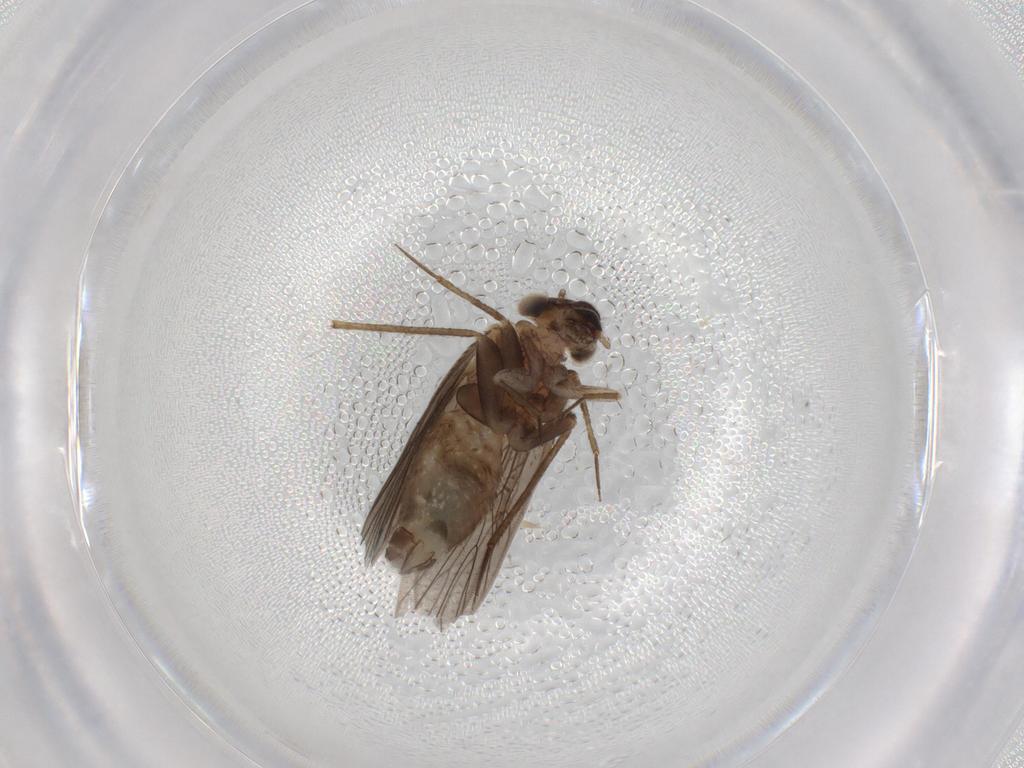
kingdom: Animalia
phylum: Arthropoda
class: Insecta
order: Psocodea
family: Lepidopsocidae
